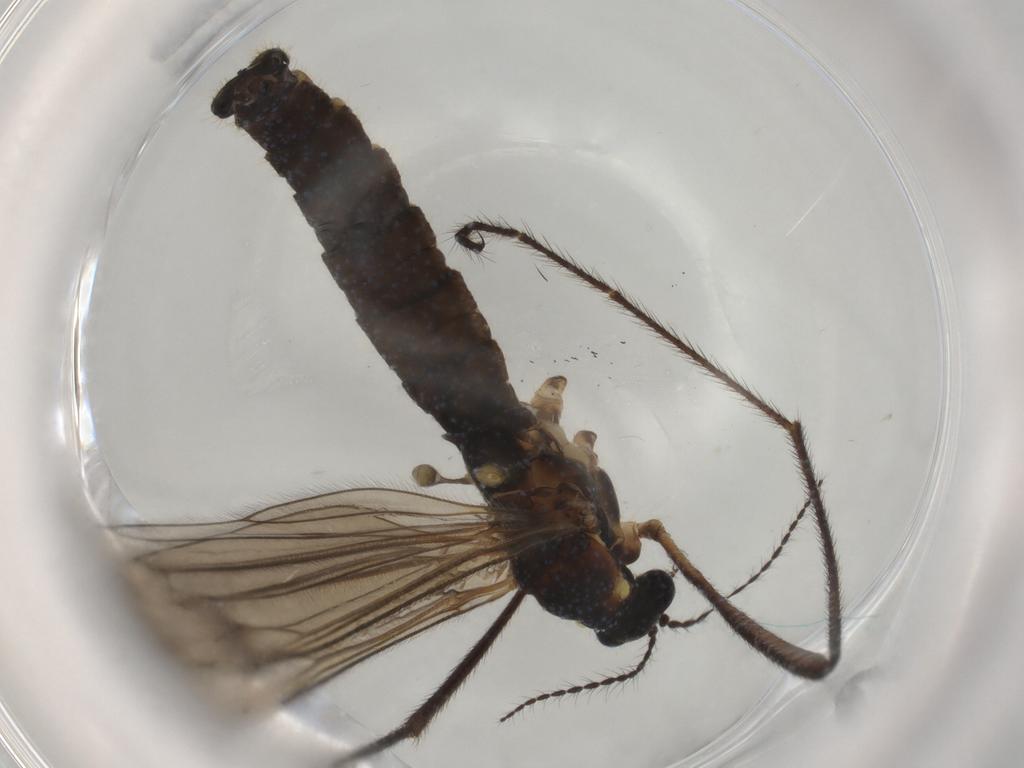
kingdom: Animalia
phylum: Arthropoda
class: Insecta
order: Diptera
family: Limoniidae
